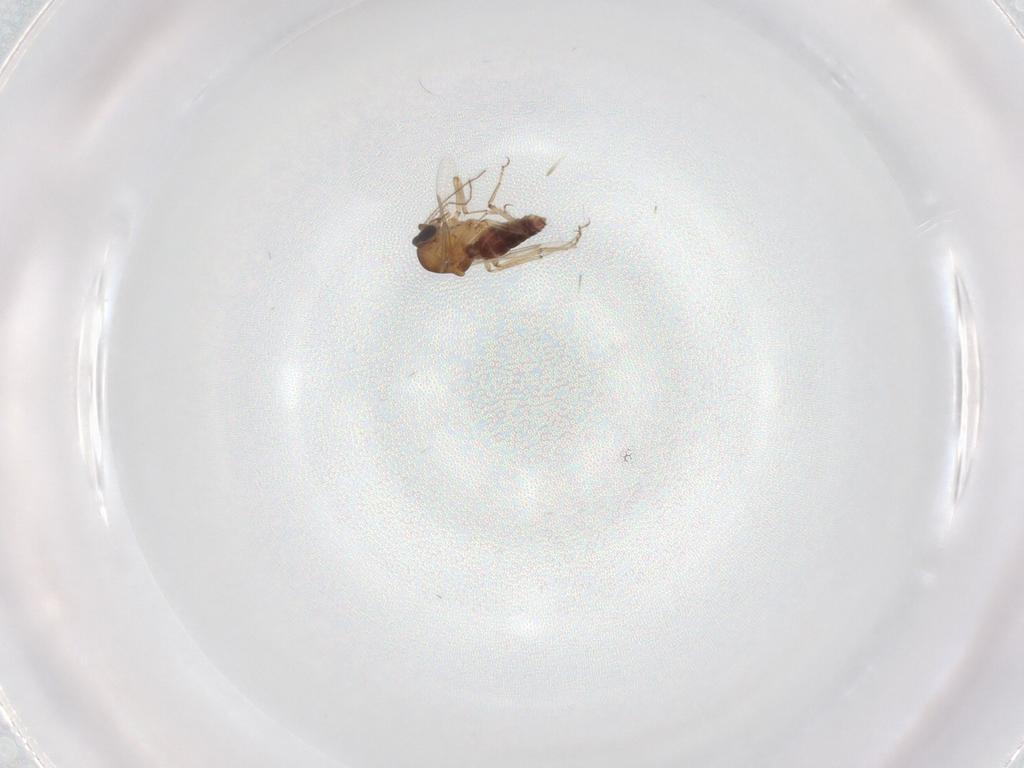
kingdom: Animalia
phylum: Arthropoda
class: Insecta
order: Diptera
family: Ceratopogonidae
